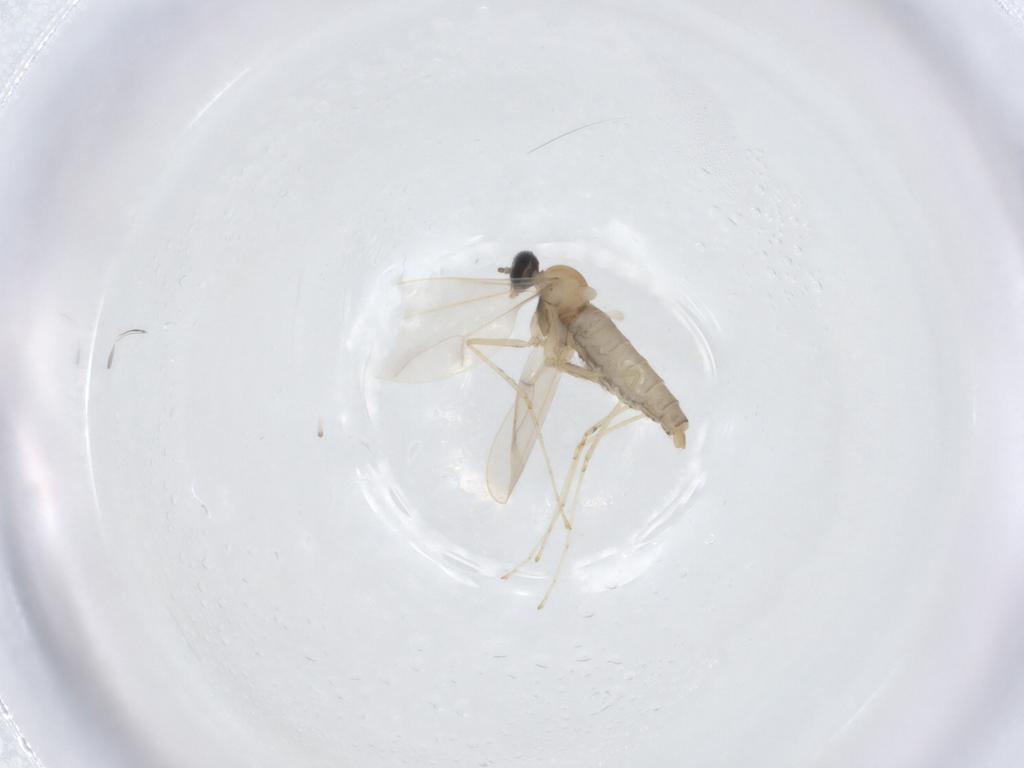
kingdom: Animalia
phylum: Arthropoda
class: Insecta
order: Diptera
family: Cecidomyiidae
